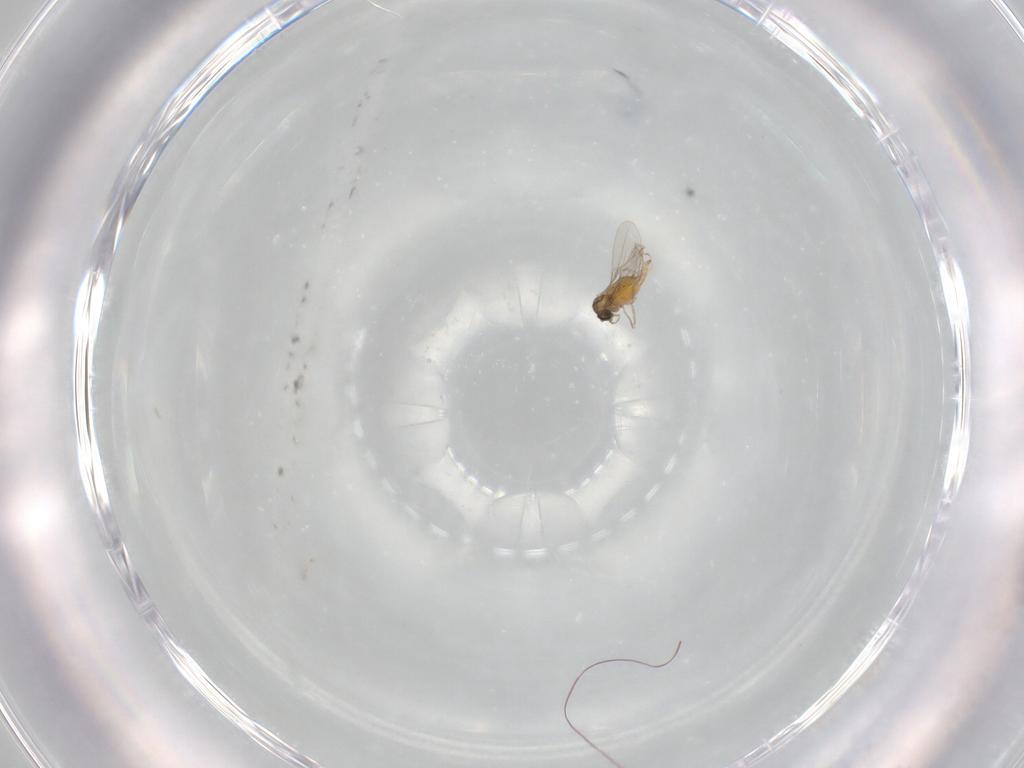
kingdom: Animalia
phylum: Arthropoda
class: Insecta
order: Diptera
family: Cecidomyiidae
